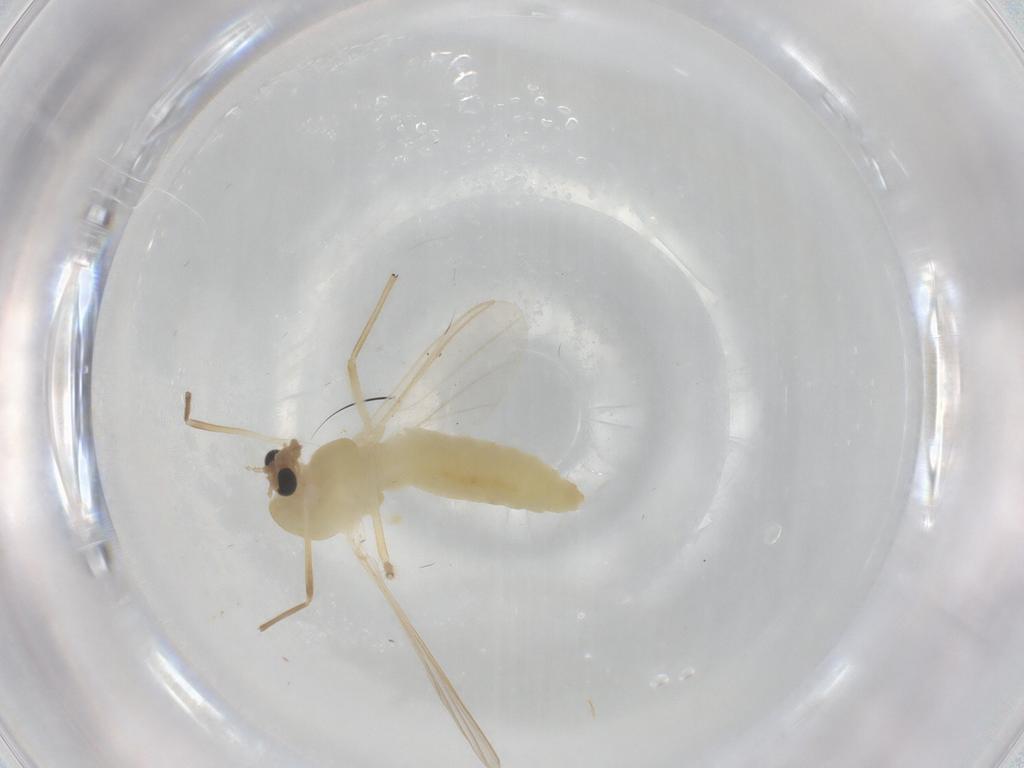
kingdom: Animalia
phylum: Arthropoda
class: Insecta
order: Diptera
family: Chironomidae
